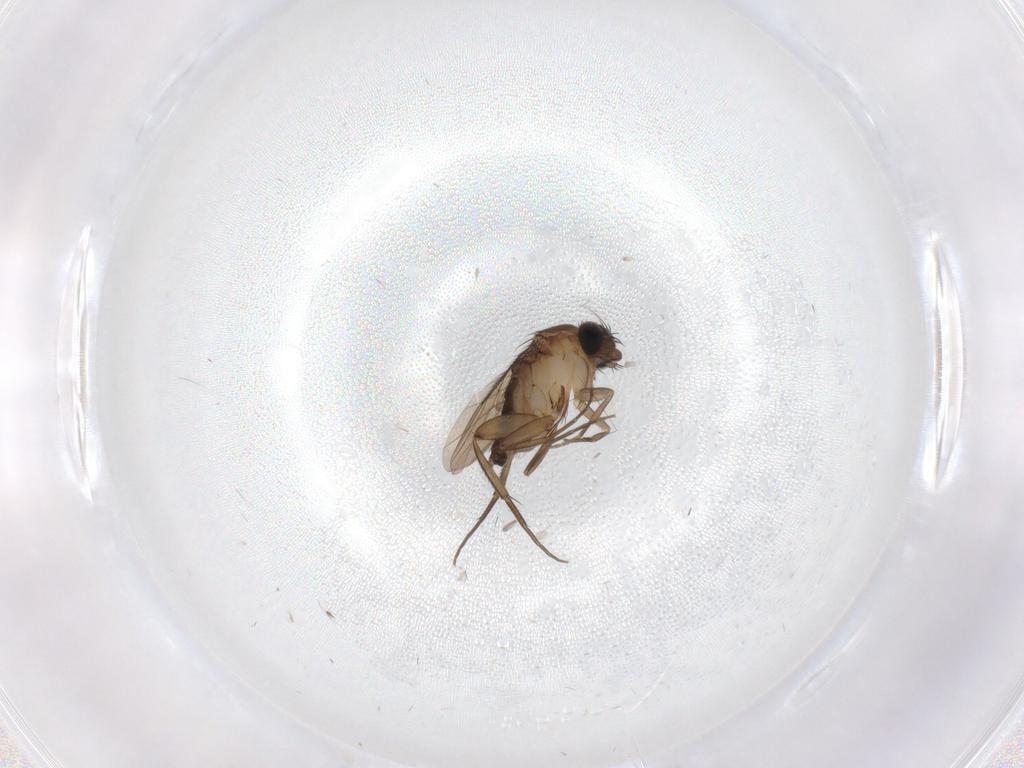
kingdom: Animalia
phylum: Arthropoda
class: Insecta
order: Diptera
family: Phoridae
